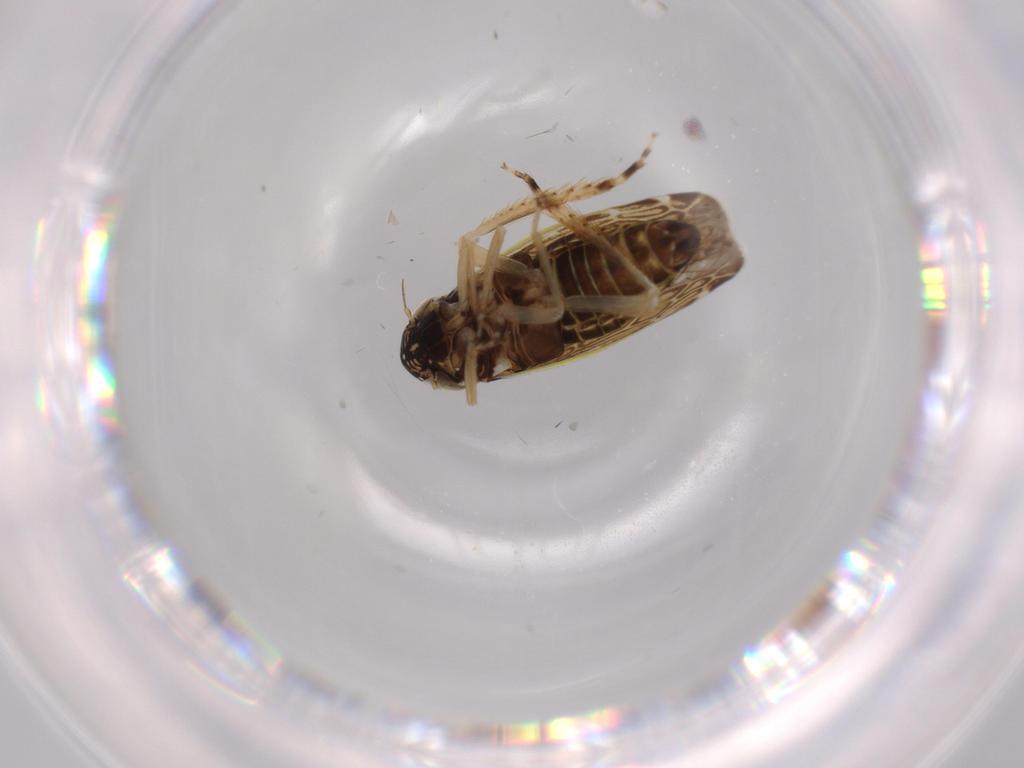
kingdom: Animalia
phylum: Arthropoda
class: Insecta
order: Hemiptera
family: Cicadellidae
